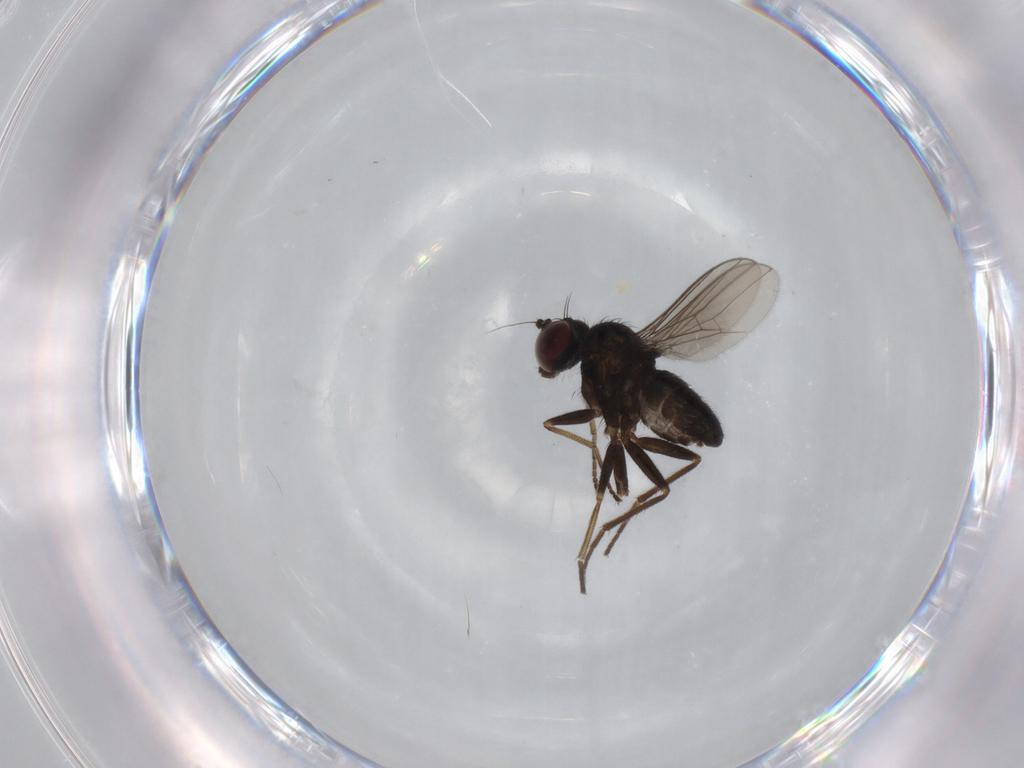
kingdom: Animalia
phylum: Arthropoda
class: Insecta
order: Diptera
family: Dolichopodidae
